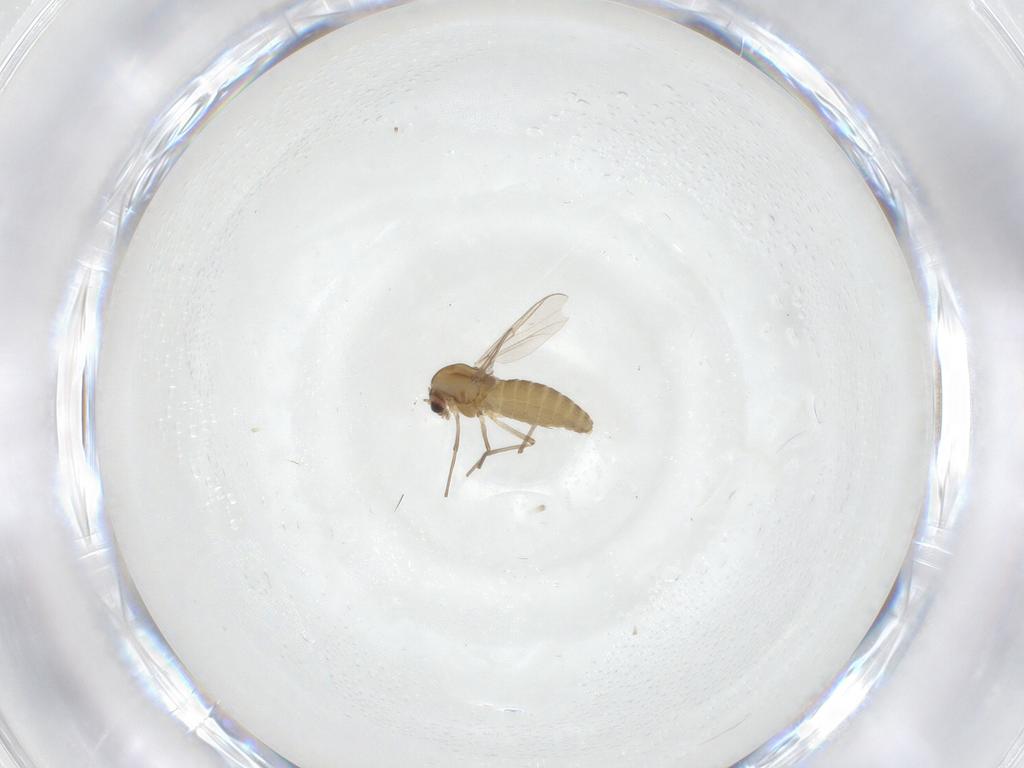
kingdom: Animalia
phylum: Arthropoda
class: Insecta
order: Diptera
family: Chironomidae
